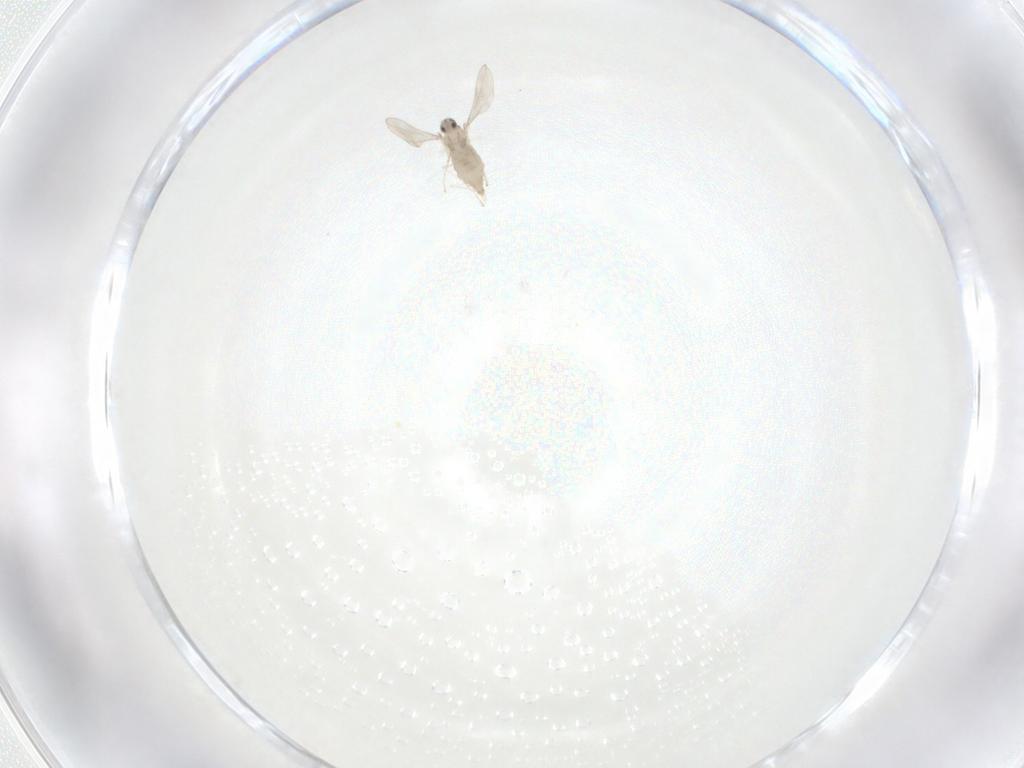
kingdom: Animalia
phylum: Arthropoda
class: Insecta
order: Diptera
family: Cecidomyiidae
